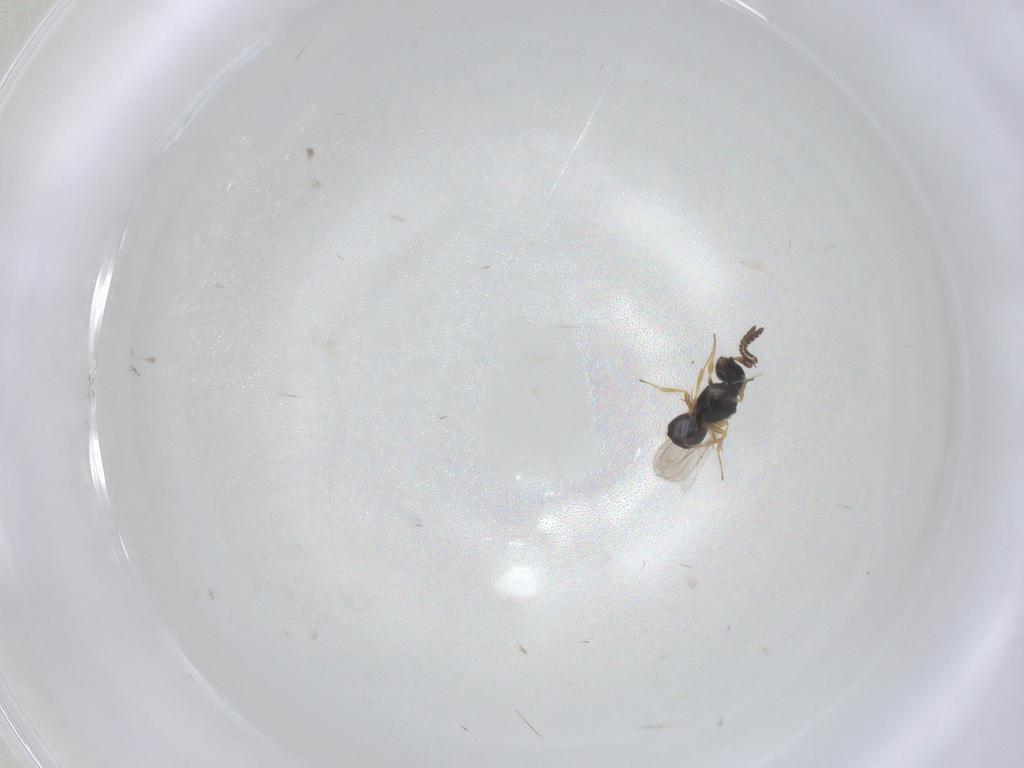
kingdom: Animalia
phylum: Arthropoda
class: Insecta
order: Hymenoptera
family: Scelionidae
